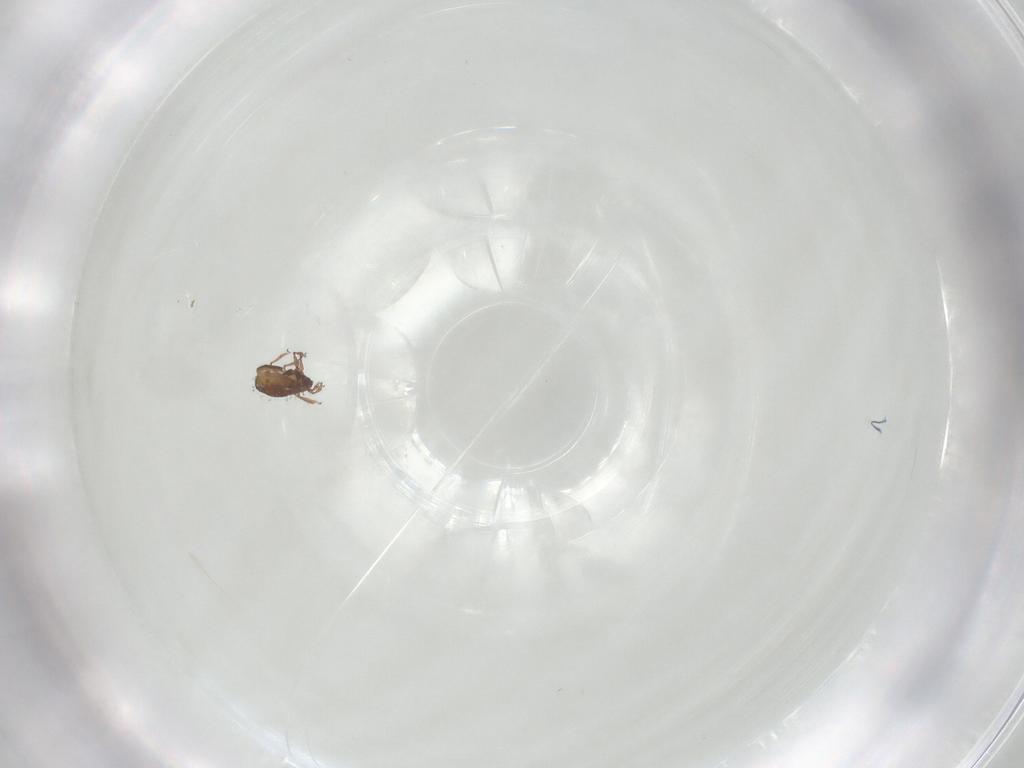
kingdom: Animalia
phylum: Arthropoda
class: Arachnida
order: Sarcoptiformes
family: Scheloribatidae
